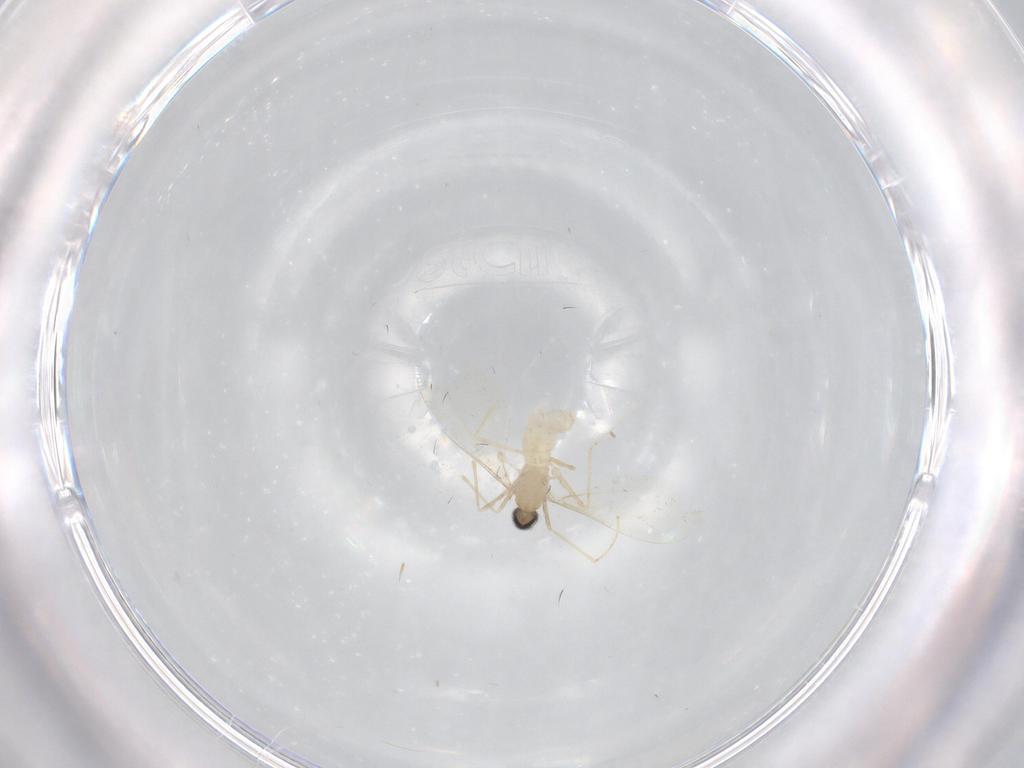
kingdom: Animalia
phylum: Arthropoda
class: Insecta
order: Diptera
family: Cecidomyiidae
